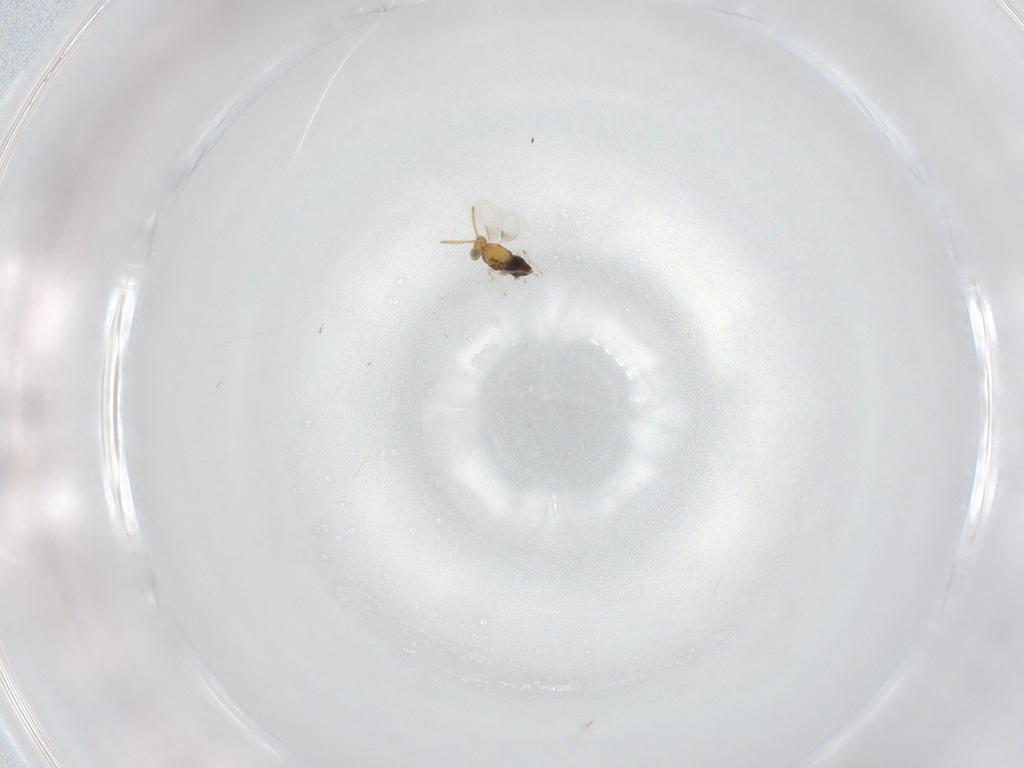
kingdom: Animalia
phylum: Arthropoda
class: Insecta
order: Hymenoptera
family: Aphelinidae
